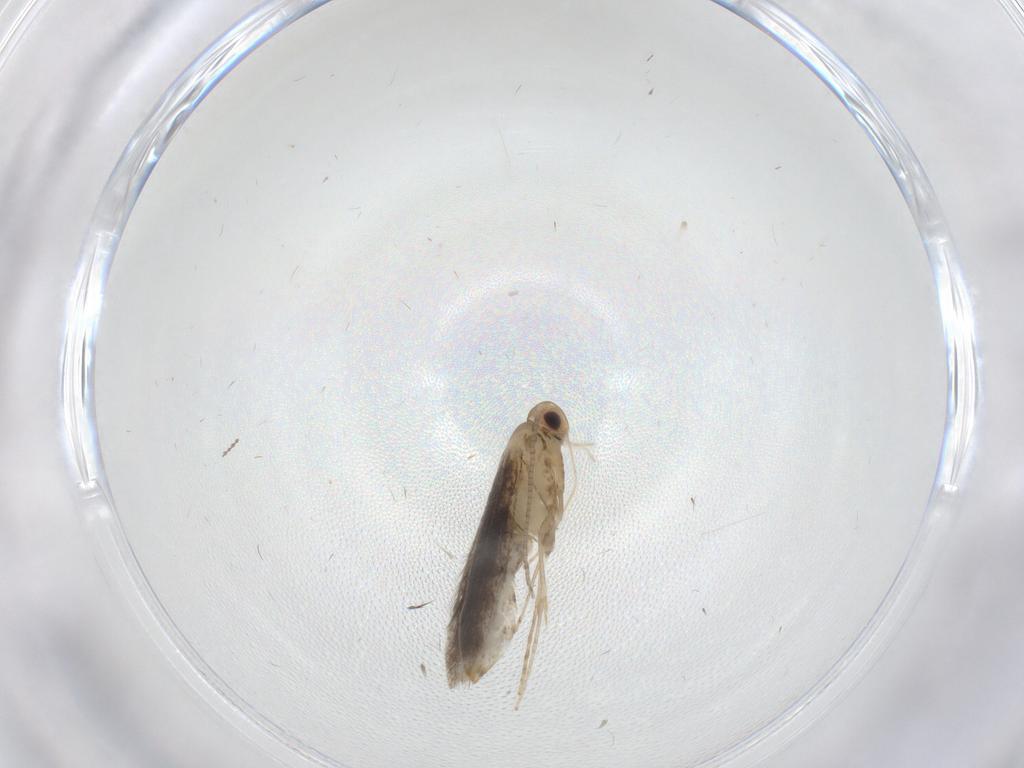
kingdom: Animalia
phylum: Arthropoda
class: Insecta
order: Lepidoptera
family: Gracillariidae
